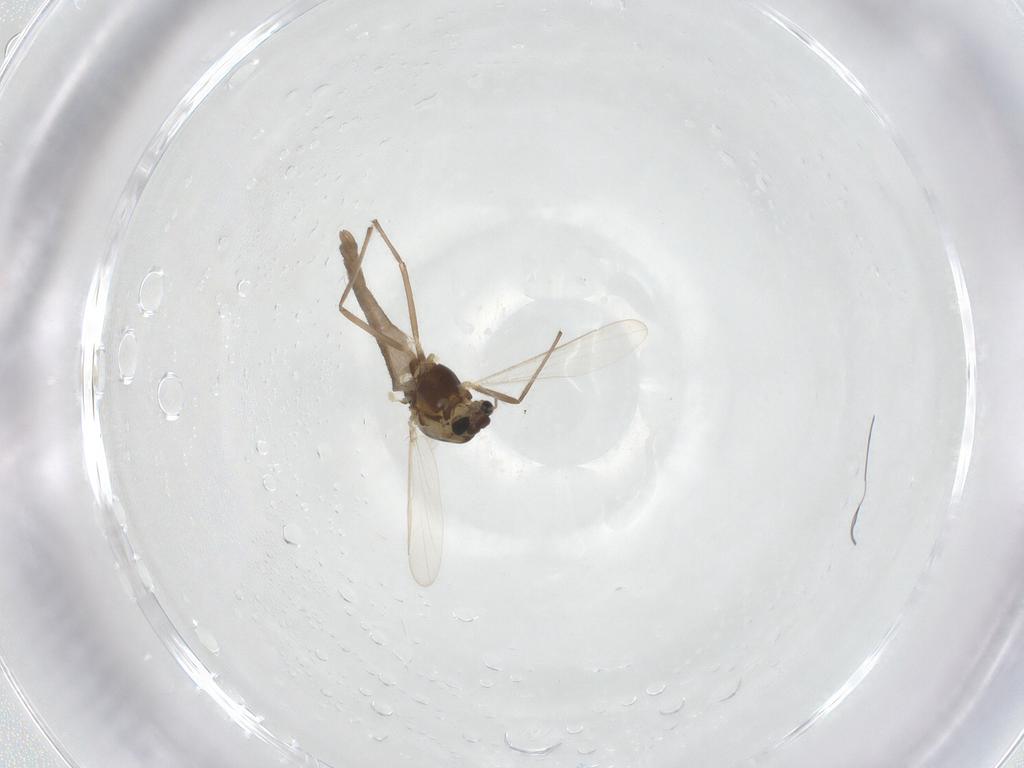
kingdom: Animalia
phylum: Arthropoda
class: Insecta
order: Diptera
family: Chironomidae
